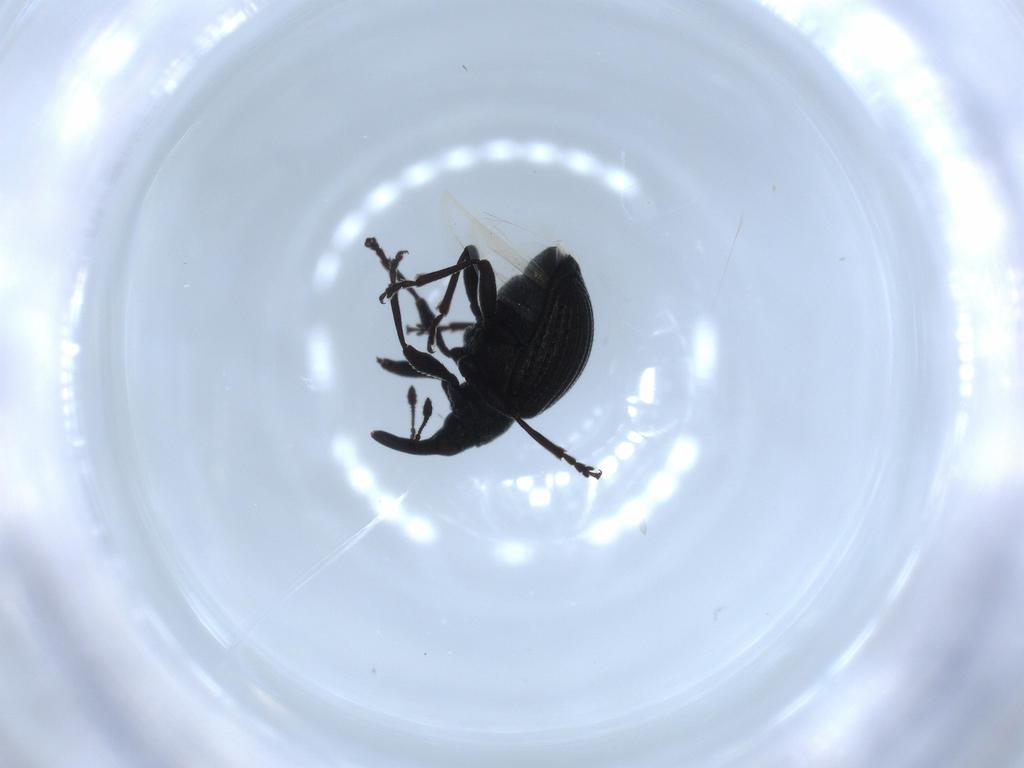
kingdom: Animalia
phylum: Arthropoda
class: Insecta
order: Coleoptera
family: Brentidae
